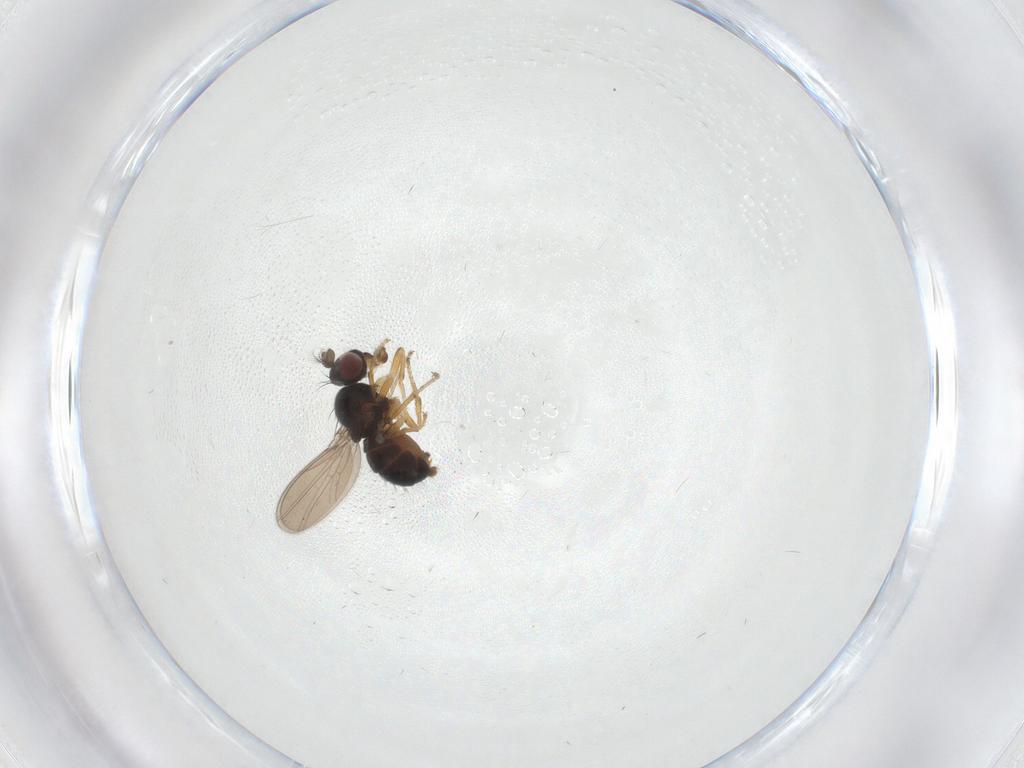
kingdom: Animalia
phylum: Arthropoda
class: Insecta
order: Diptera
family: Ephydridae
